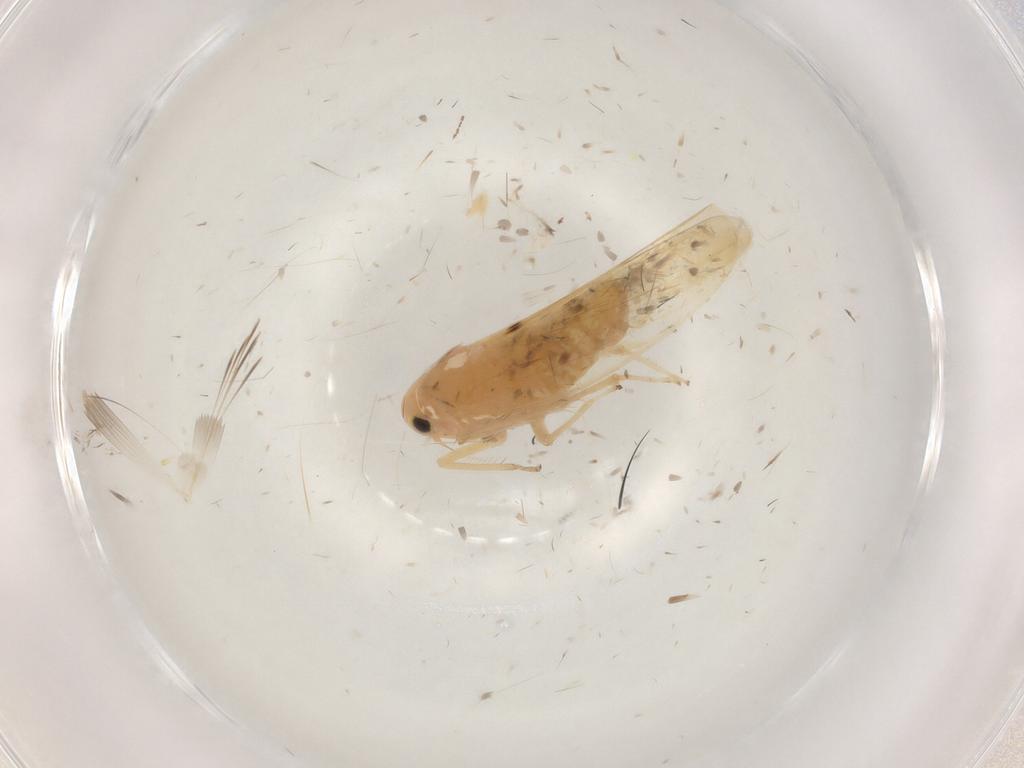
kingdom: Animalia
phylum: Arthropoda
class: Insecta
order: Hemiptera
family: Cicadellidae
